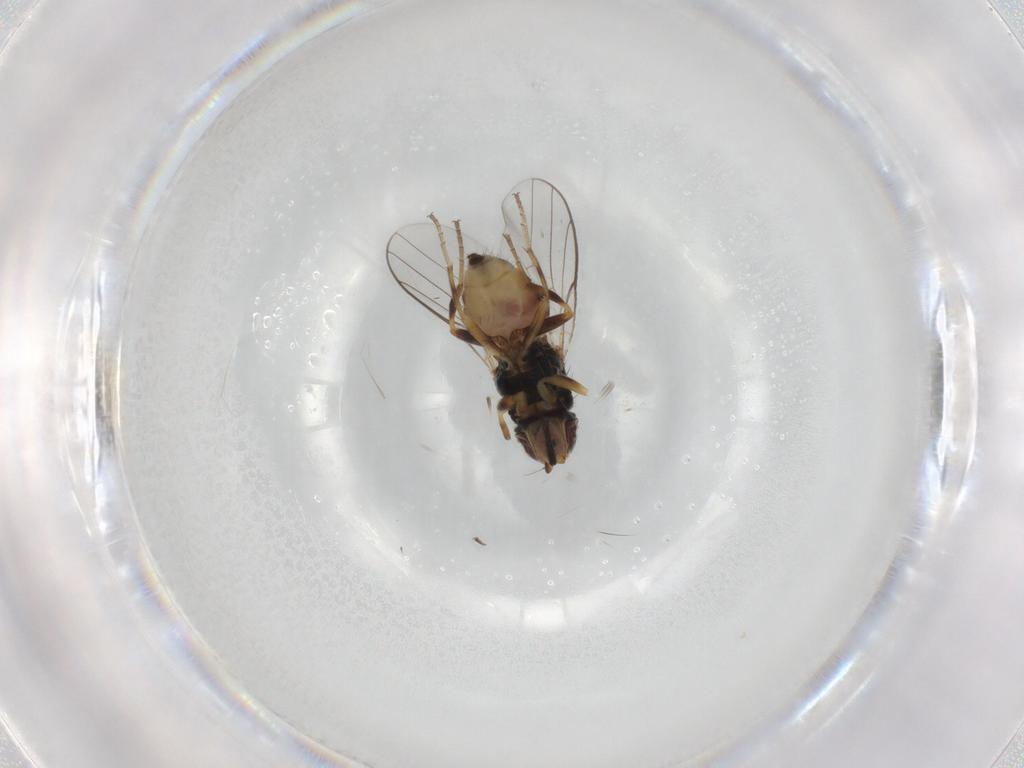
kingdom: Animalia
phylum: Arthropoda
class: Insecta
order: Diptera
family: Chloropidae
